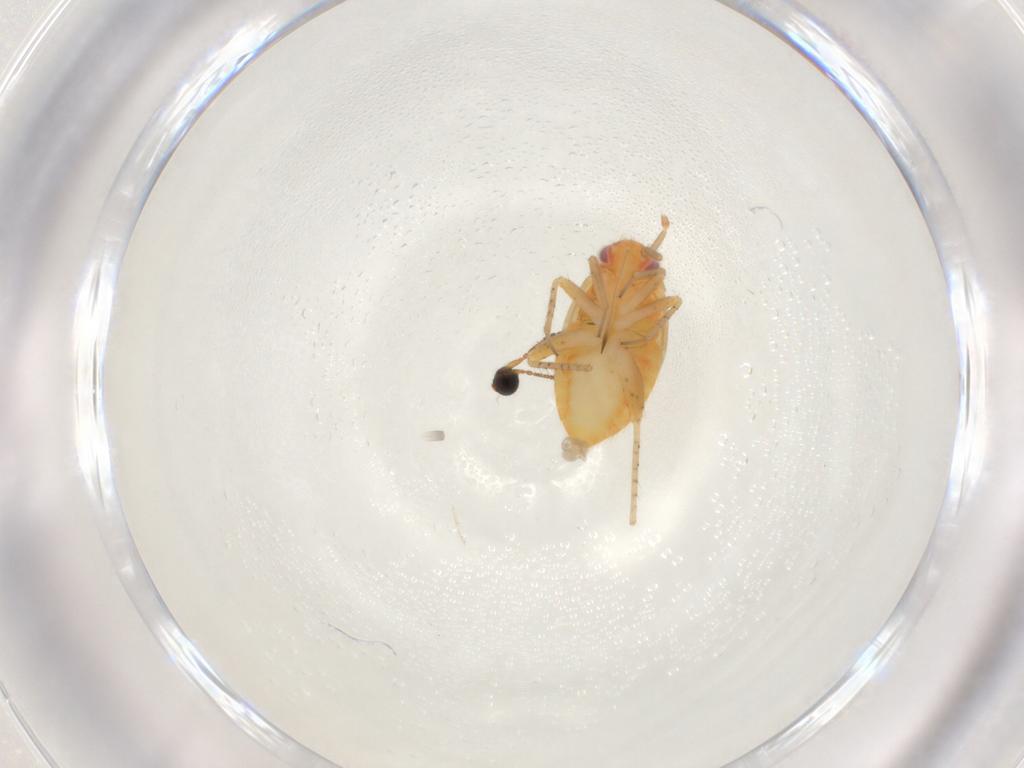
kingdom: Animalia
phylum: Arthropoda
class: Insecta
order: Hemiptera
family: Miridae
